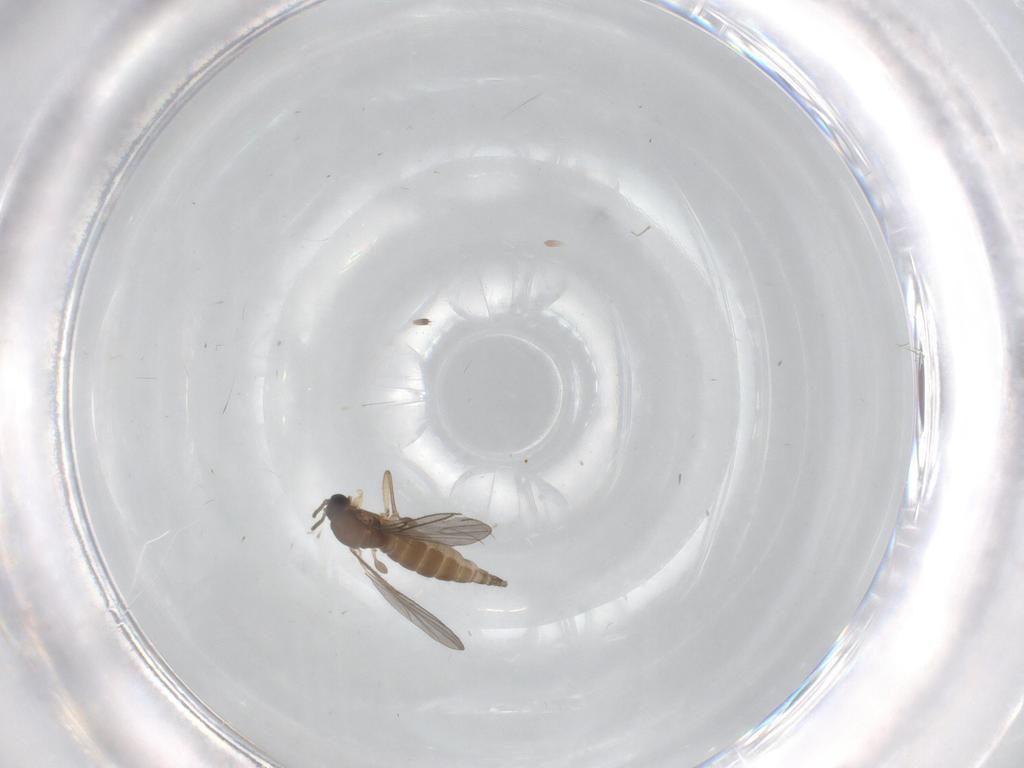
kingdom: Animalia
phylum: Arthropoda
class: Insecta
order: Diptera
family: Sciaridae
